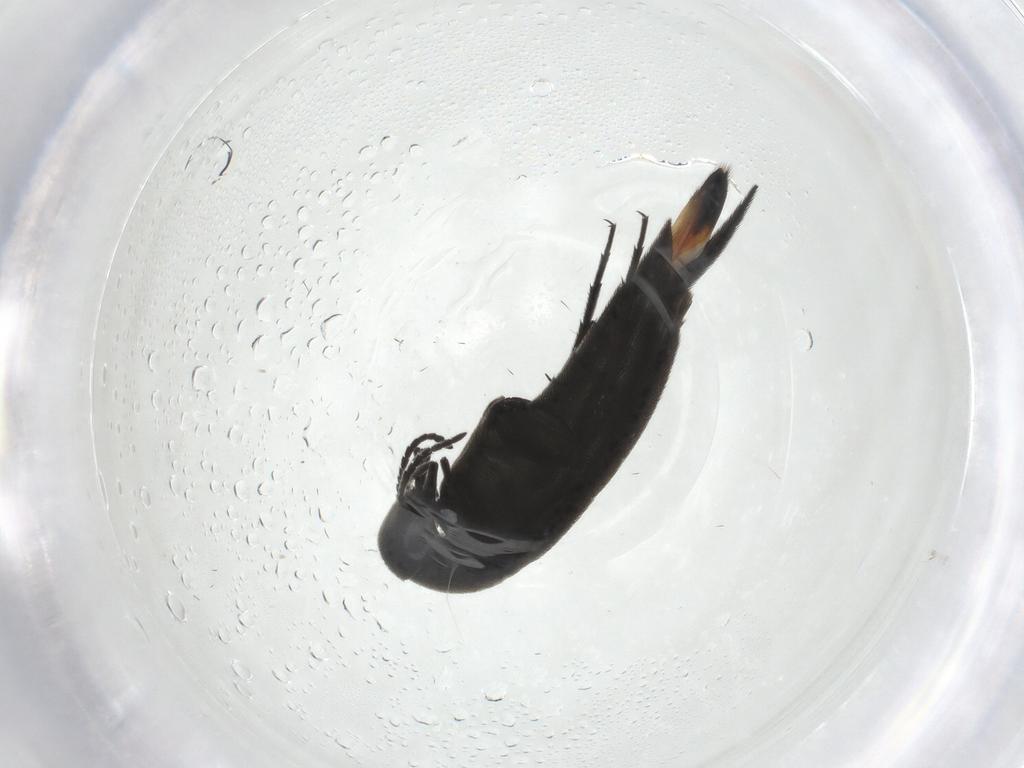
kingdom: Animalia
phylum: Arthropoda
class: Insecta
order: Coleoptera
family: Mordellidae
